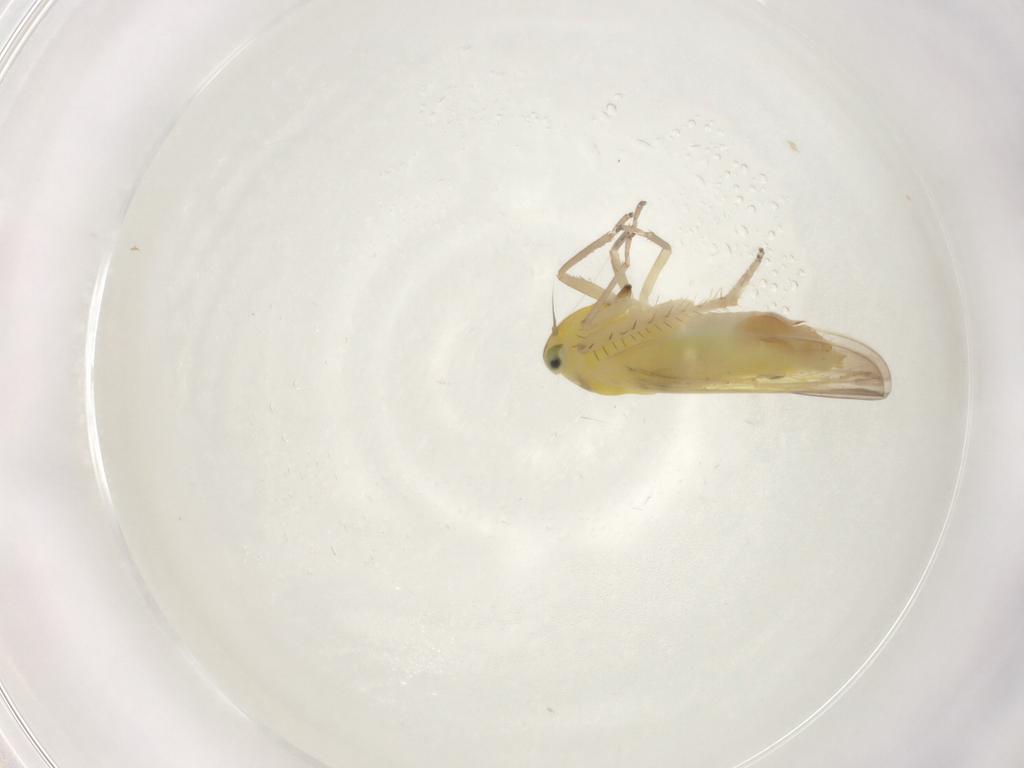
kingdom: Animalia
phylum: Arthropoda
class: Insecta
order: Hemiptera
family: Cicadellidae
